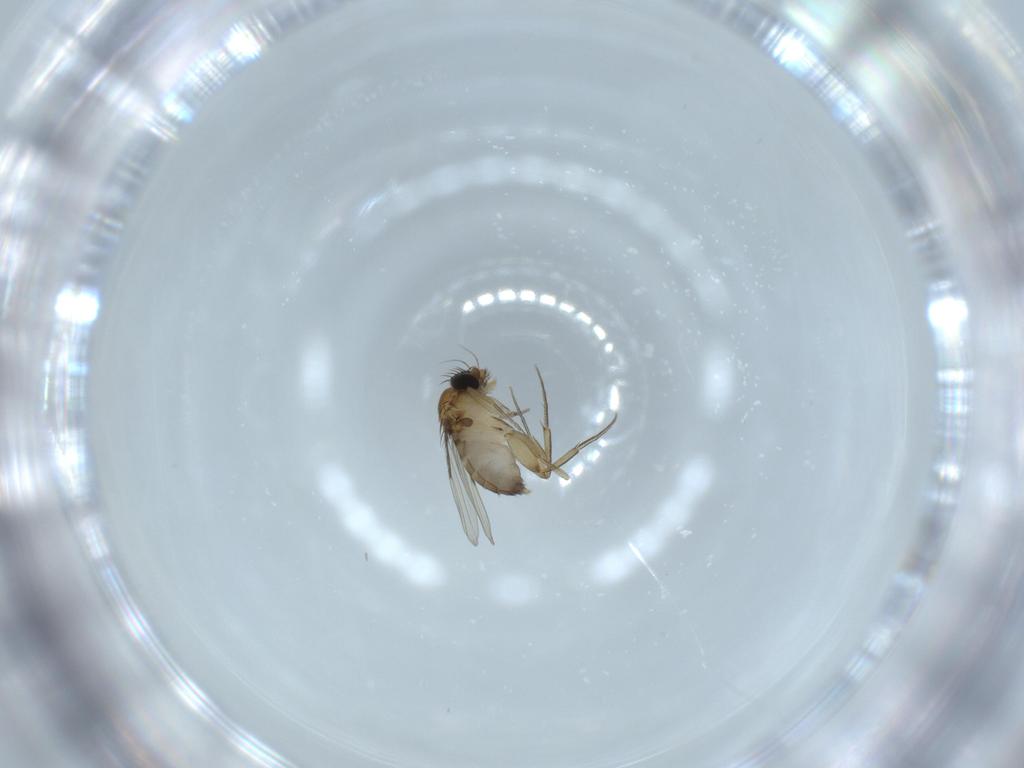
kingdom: Animalia
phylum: Arthropoda
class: Insecta
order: Diptera
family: Phoridae
